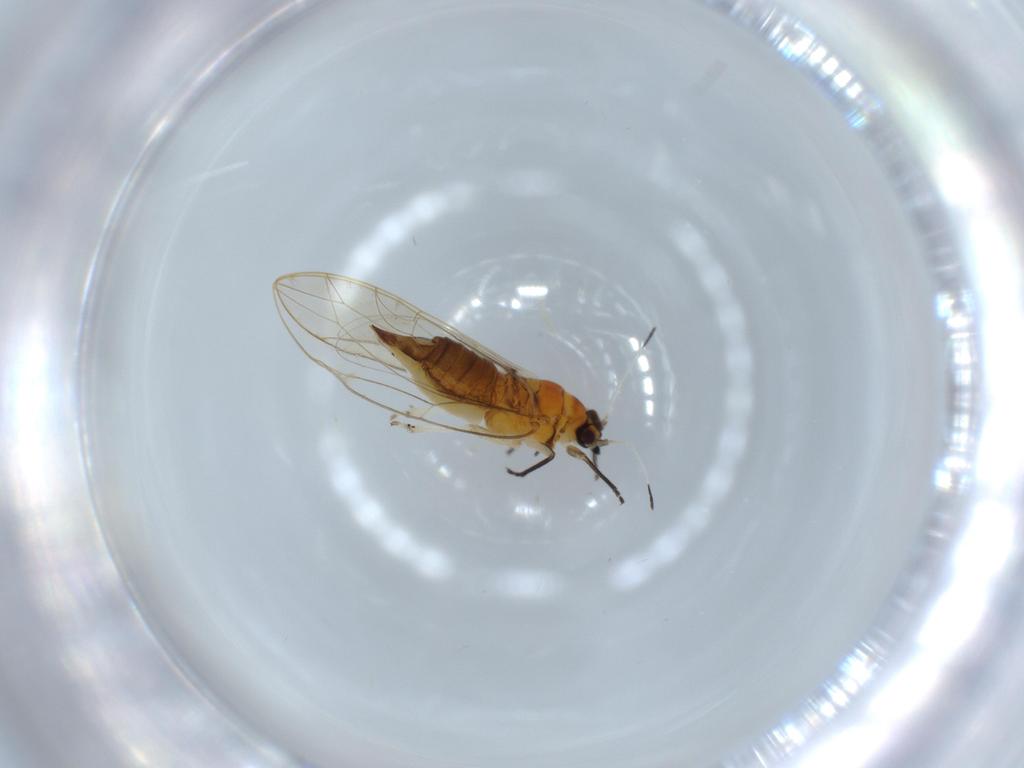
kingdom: Animalia
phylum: Arthropoda
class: Insecta
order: Hemiptera
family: Triozidae
